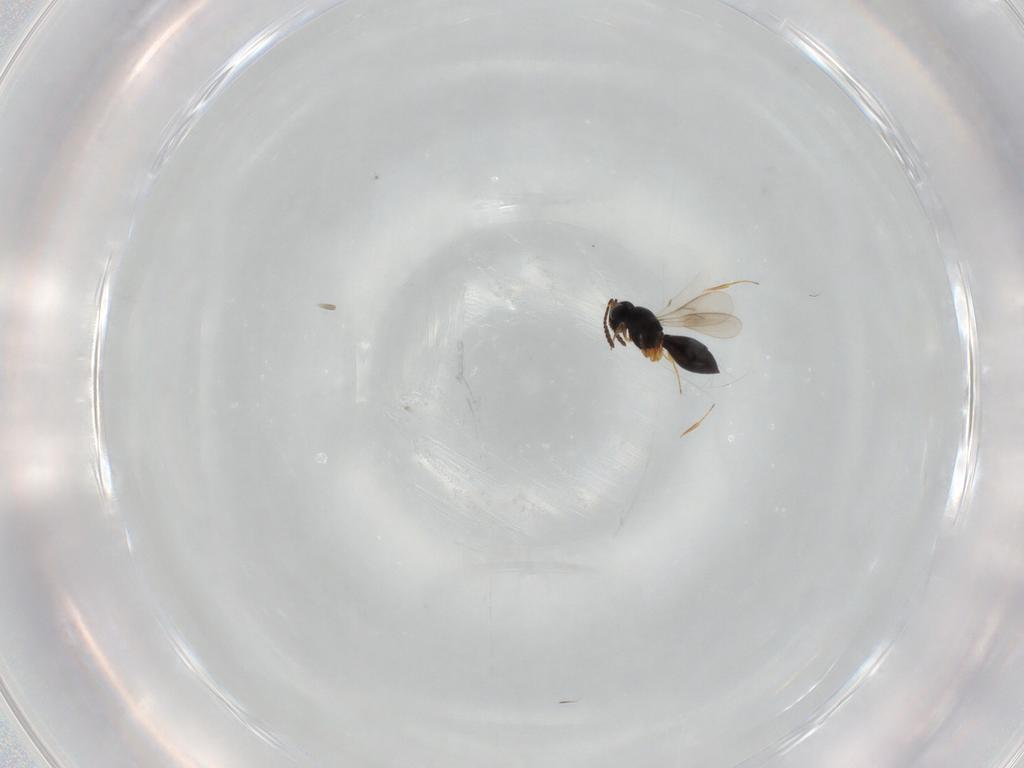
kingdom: Animalia
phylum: Arthropoda
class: Insecta
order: Hymenoptera
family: Scelionidae
